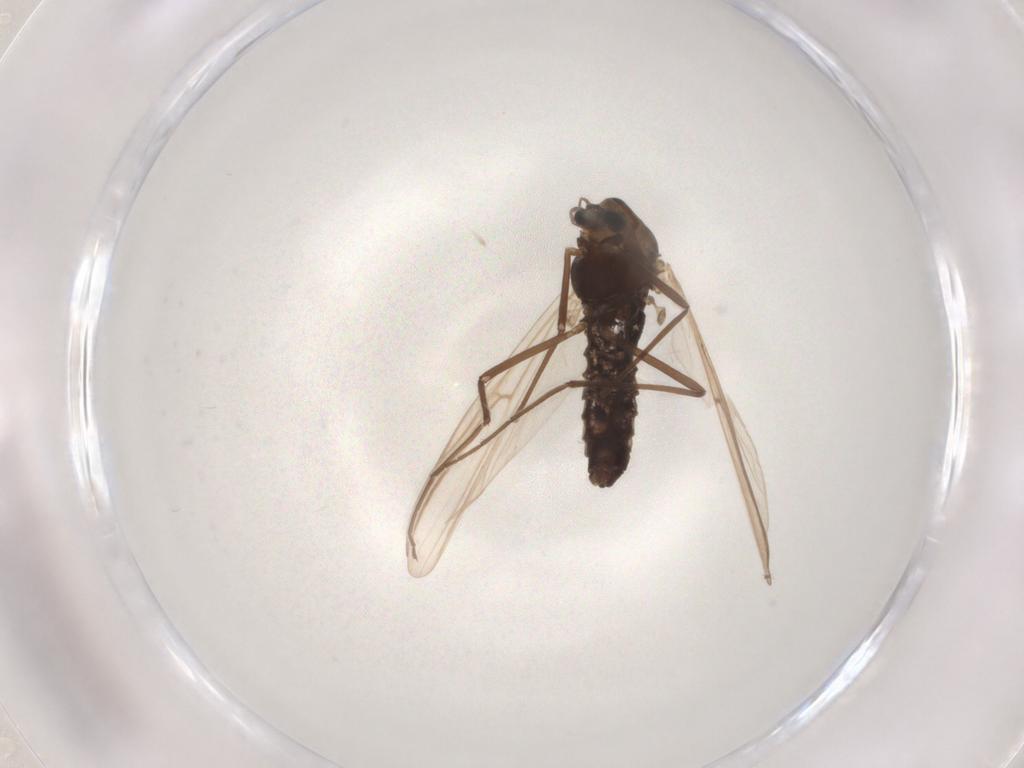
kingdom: Animalia
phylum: Arthropoda
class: Insecta
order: Diptera
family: Chironomidae
